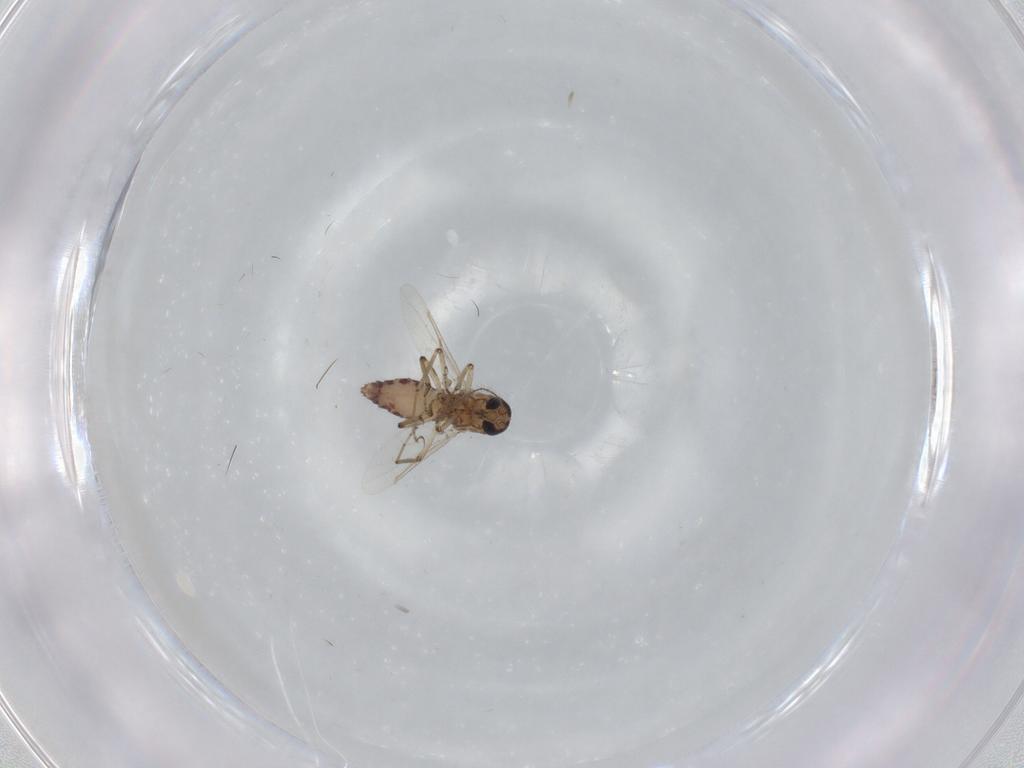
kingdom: Animalia
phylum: Arthropoda
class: Insecta
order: Diptera
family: Ceratopogonidae
